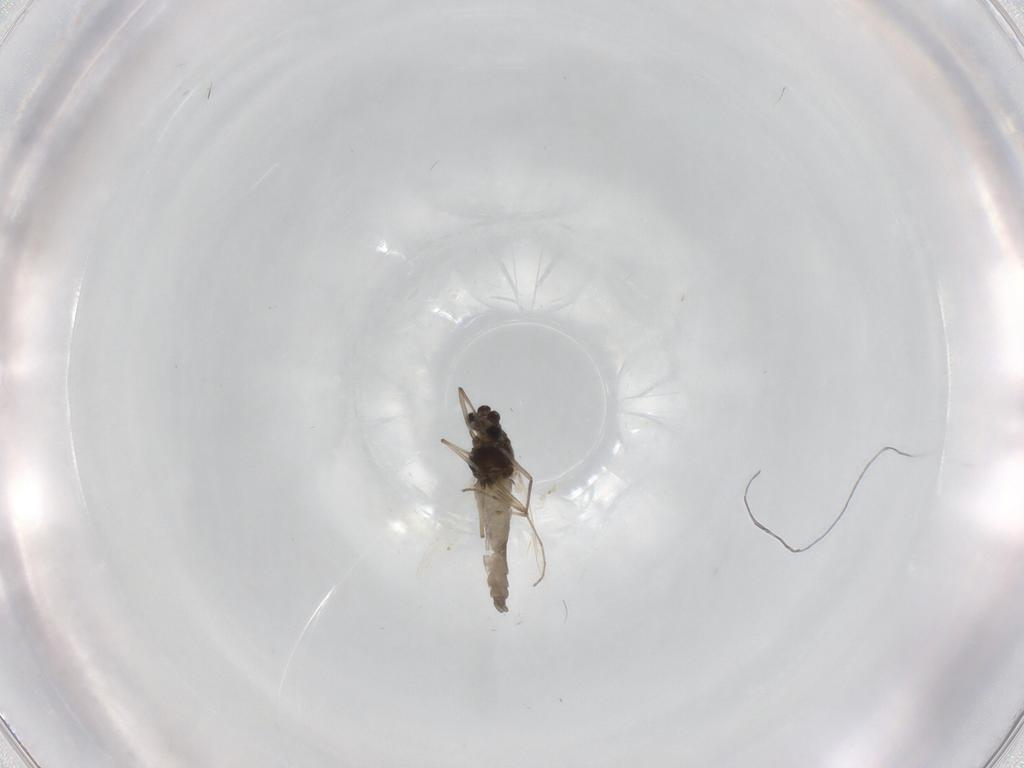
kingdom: Animalia
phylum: Arthropoda
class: Insecta
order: Diptera
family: Chironomidae
